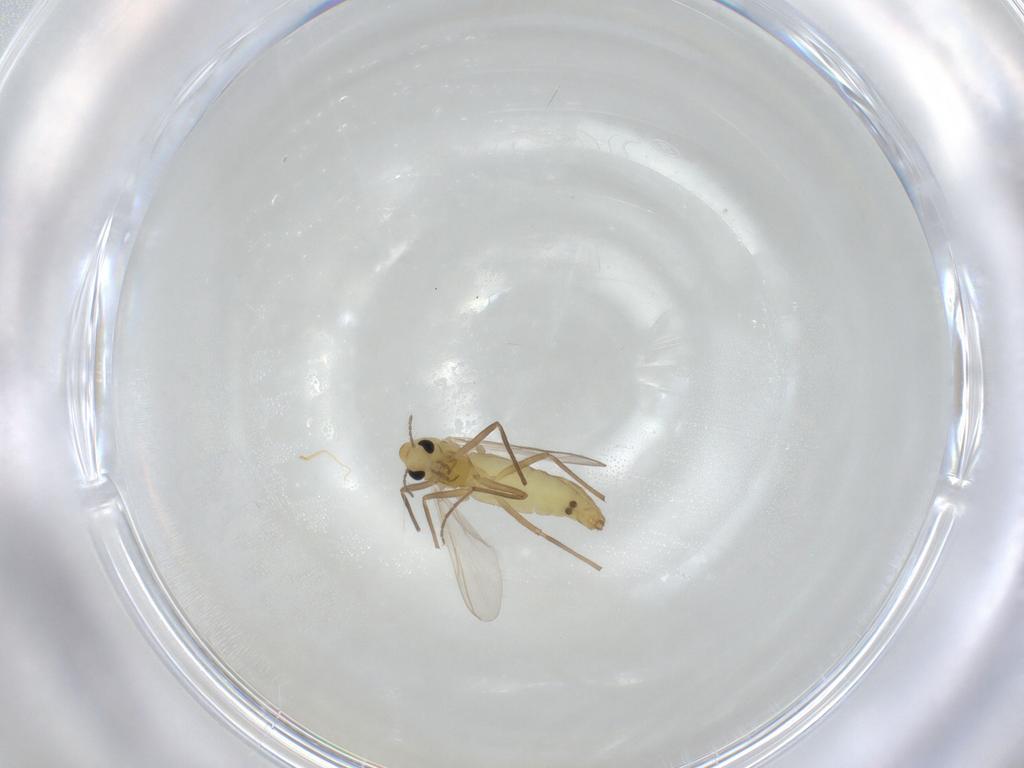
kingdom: Animalia
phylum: Arthropoda
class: Insecta
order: Diptera
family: Chironomidae
